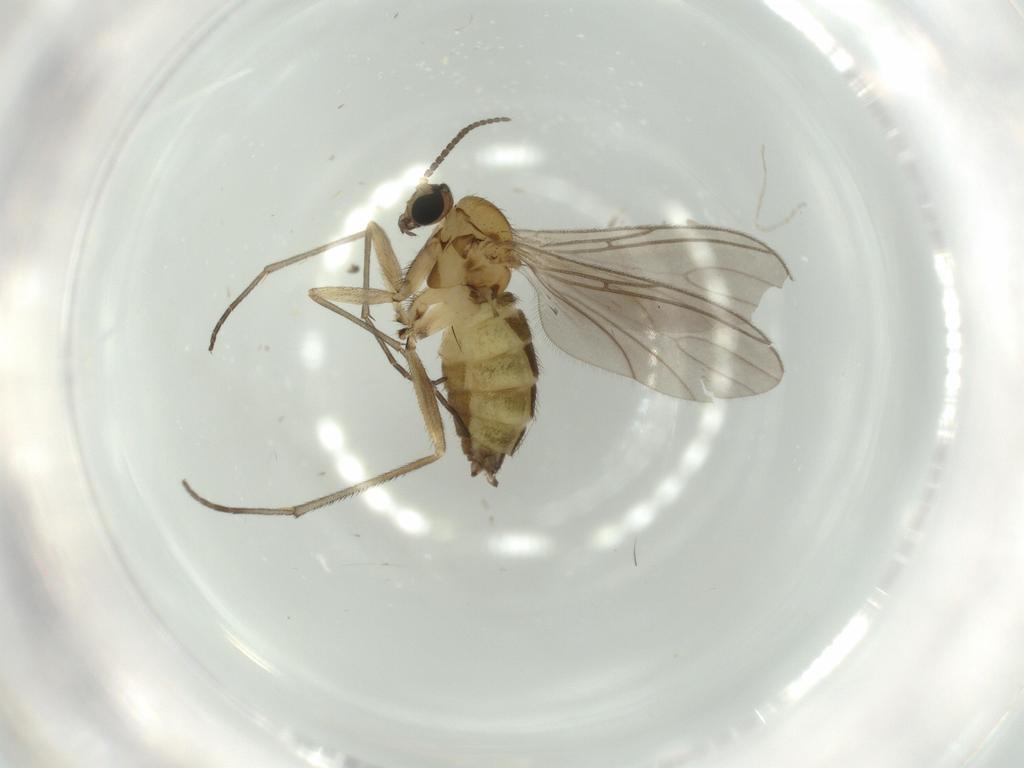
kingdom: Animalia
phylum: Arthropoda
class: Insecta
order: Diptera
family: Sciaridae
